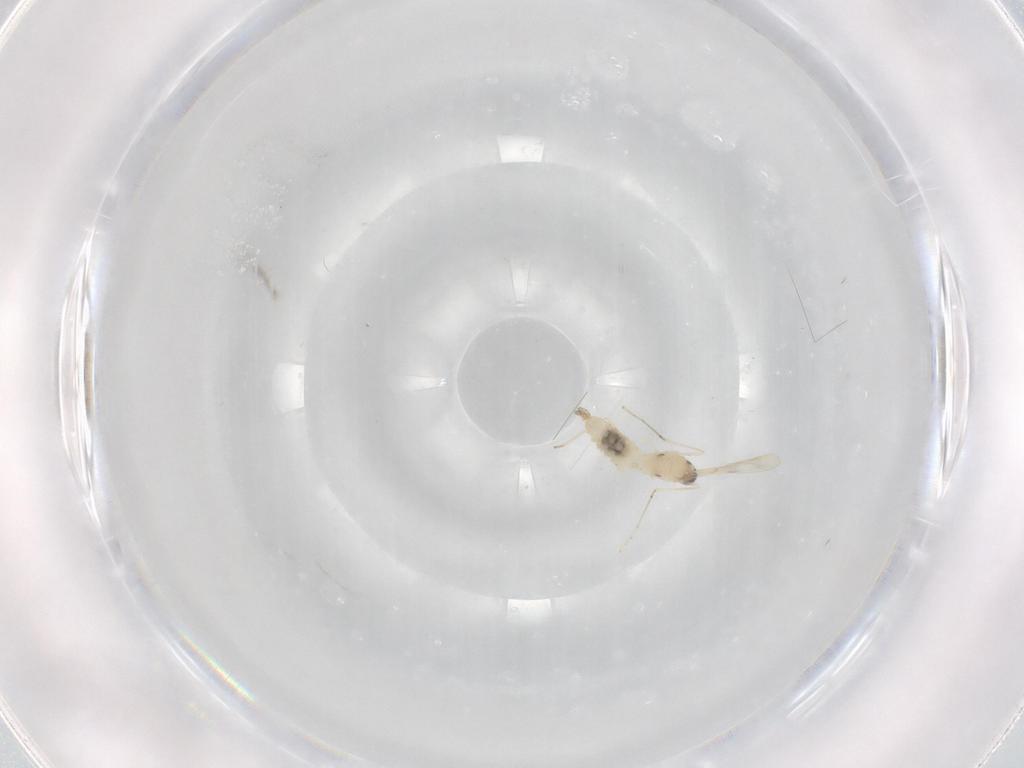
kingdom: Animalia
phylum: Arthropoda
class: Insecta
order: Diptera
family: Cecidomyiidae
